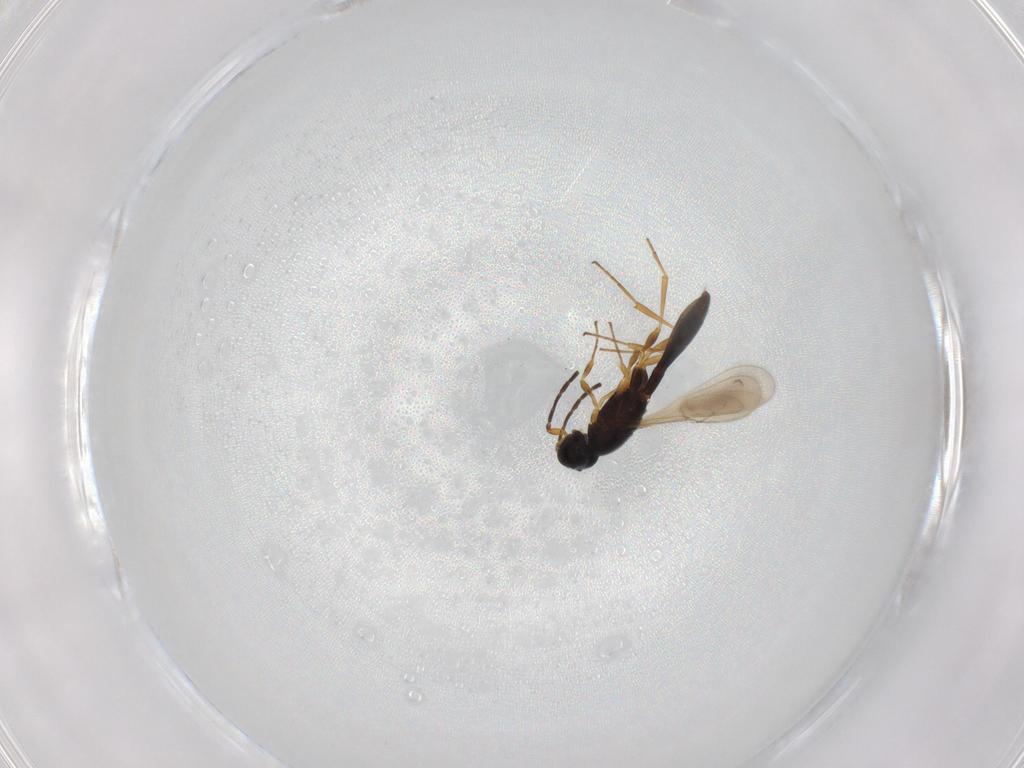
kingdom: Animalia
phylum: Arthropoda
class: Insecta
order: Hymenoptera
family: Scelionidae
